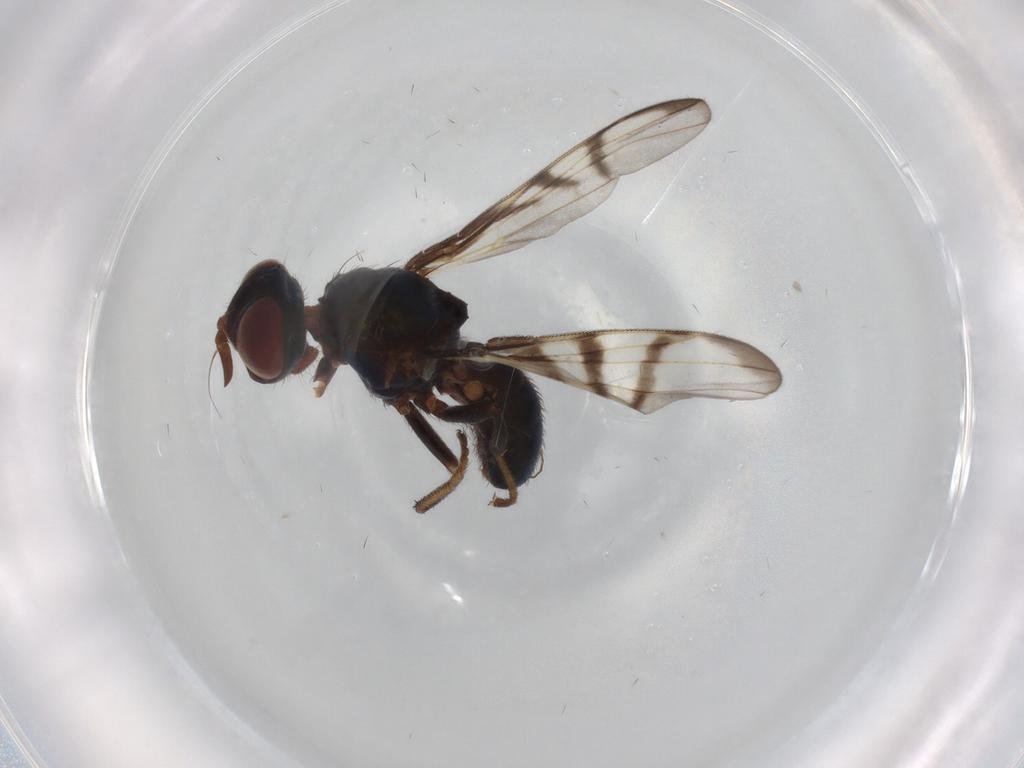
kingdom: Animalia
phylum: Arthropoda
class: Insecta
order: Diptera
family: Platystomatidae
